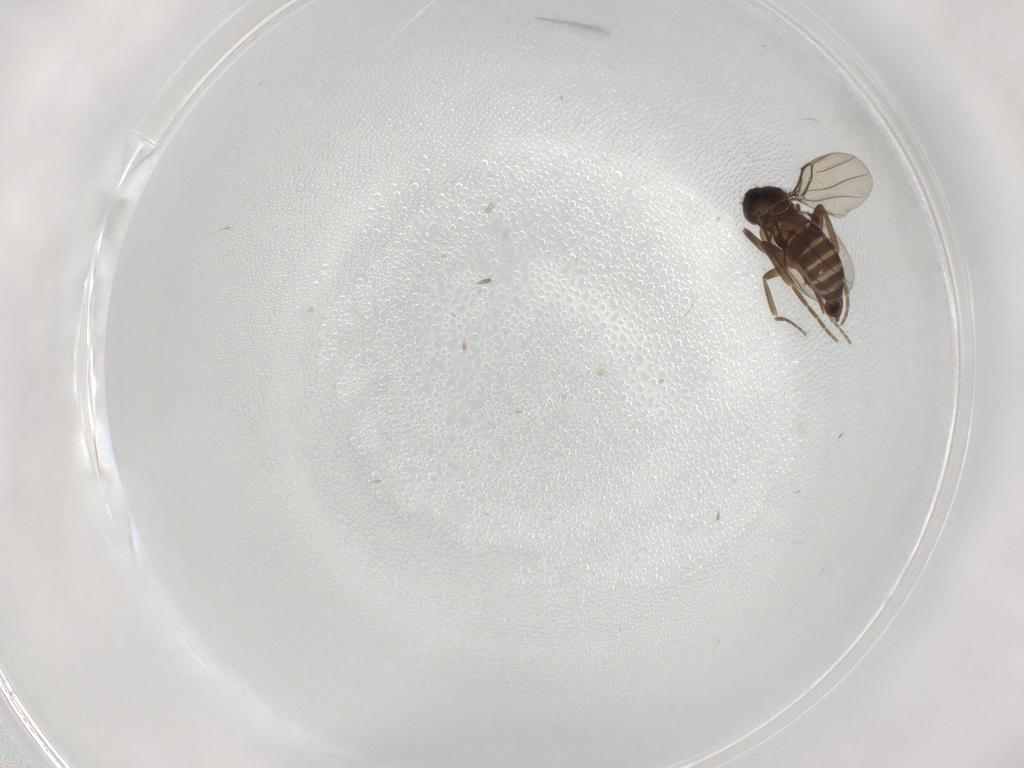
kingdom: Animalia
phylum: Arthropoda
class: Insecta
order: Diptera
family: Phoridae
